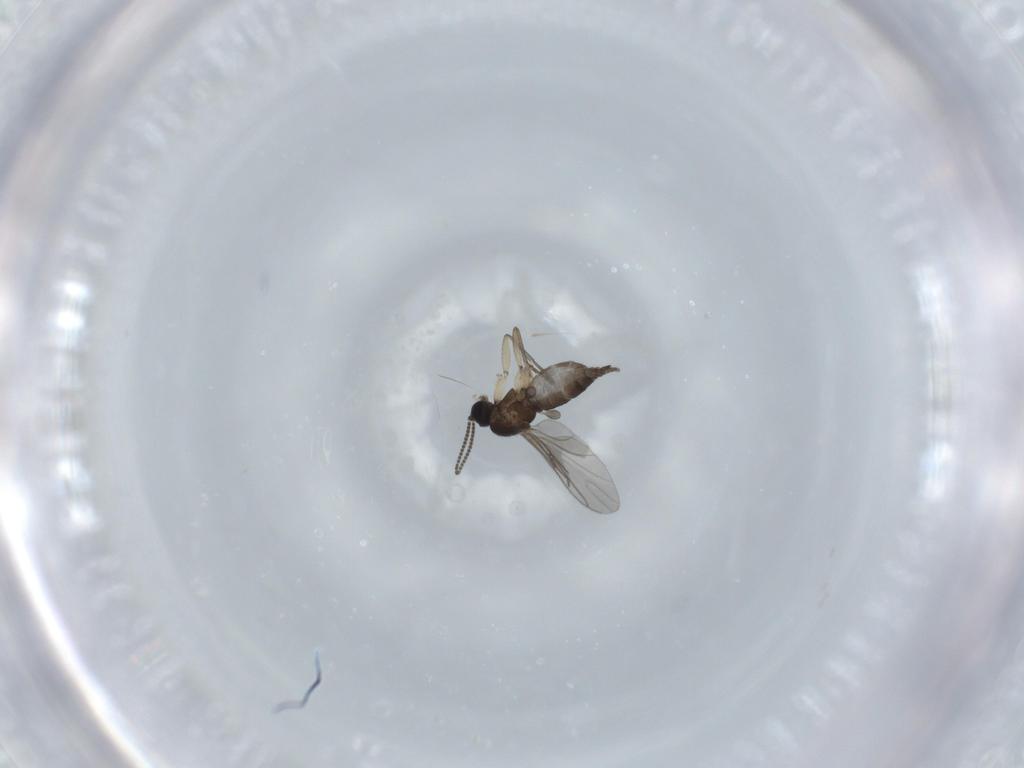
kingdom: Animalia
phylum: Arthropoda
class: Insecta
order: Diptera
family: Sciaridae
